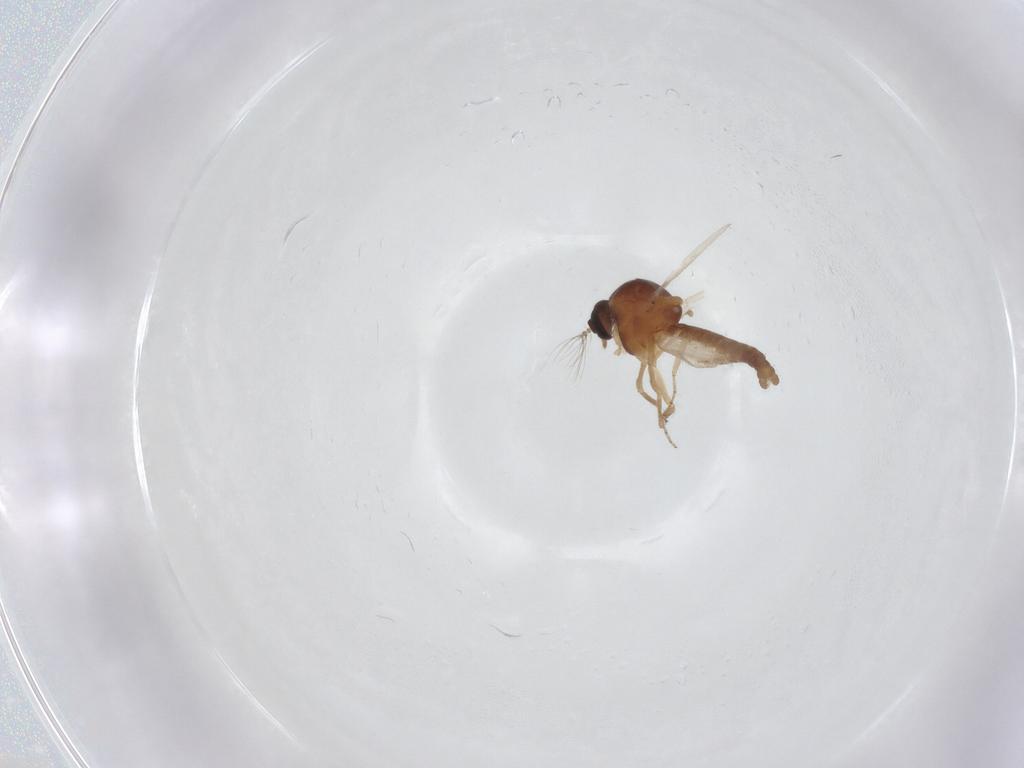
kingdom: Animalia
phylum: Arthropoda
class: Insecta
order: Diptera
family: Ceratopogonidae
